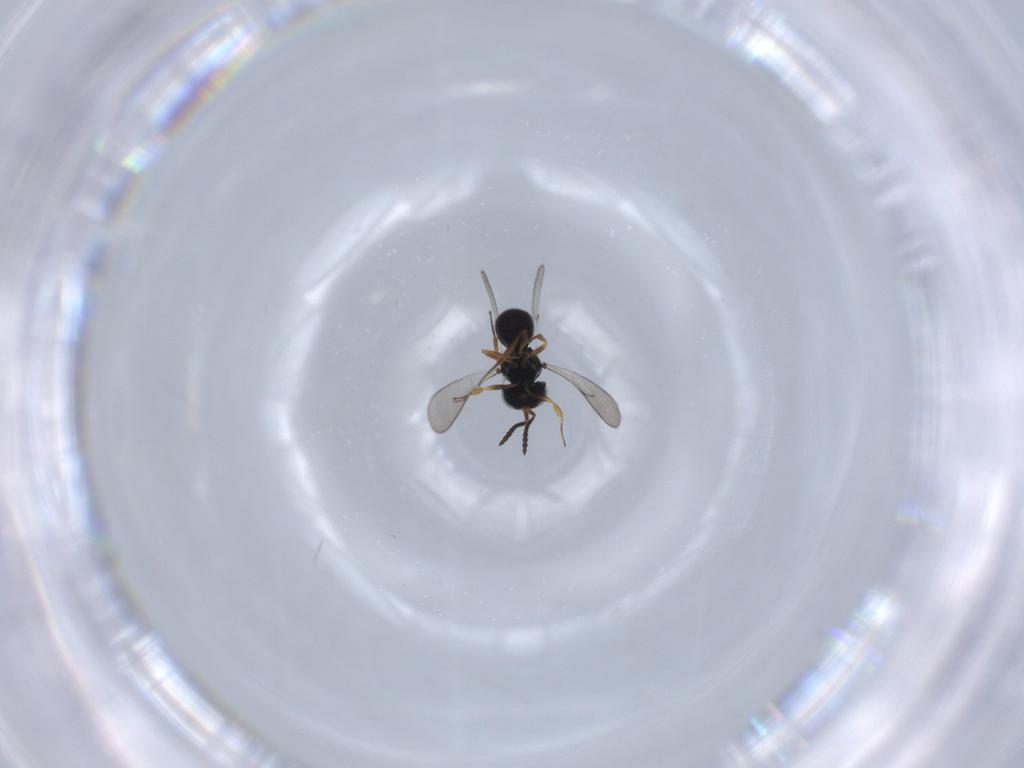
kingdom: Animalia
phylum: Arthropoda
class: Insecta
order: Hymenoptera
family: Scelionidae
